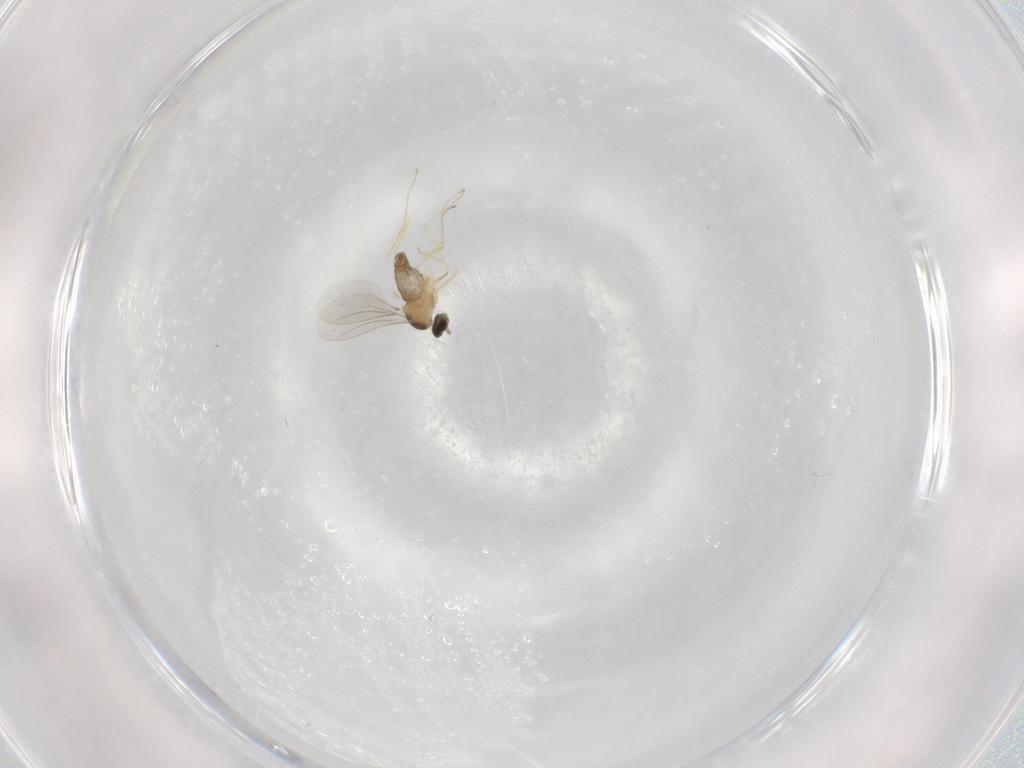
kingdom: Animalia
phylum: Arthropoda
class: Insecta
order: Diptera
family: Cecidomyiidae
